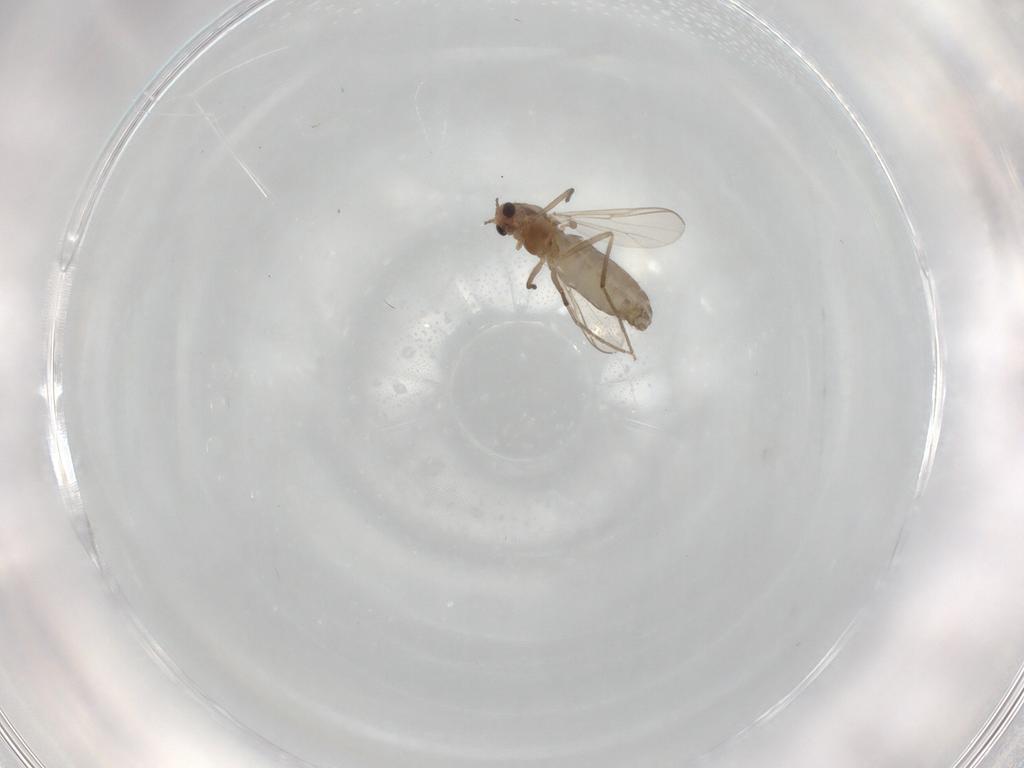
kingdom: Animalia
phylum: Arthropoda
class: Insecta
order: Diptera
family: Chironomidae
